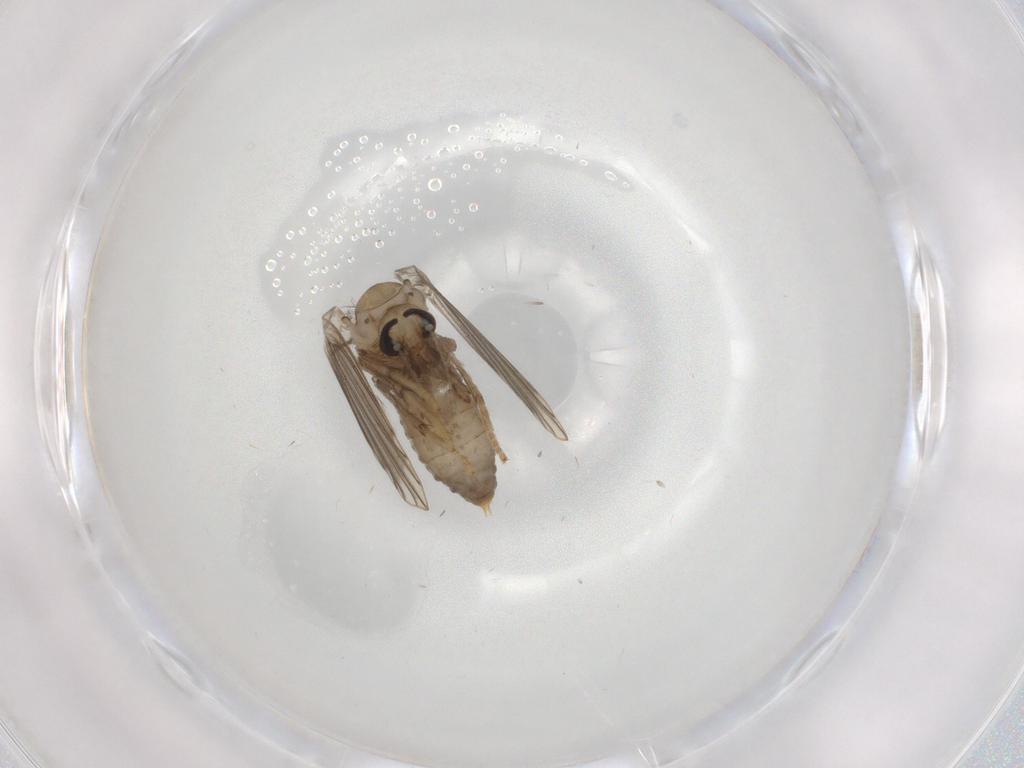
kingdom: Animalia
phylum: Arthropoda
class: Insecta
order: Diptera
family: Psychodidae
